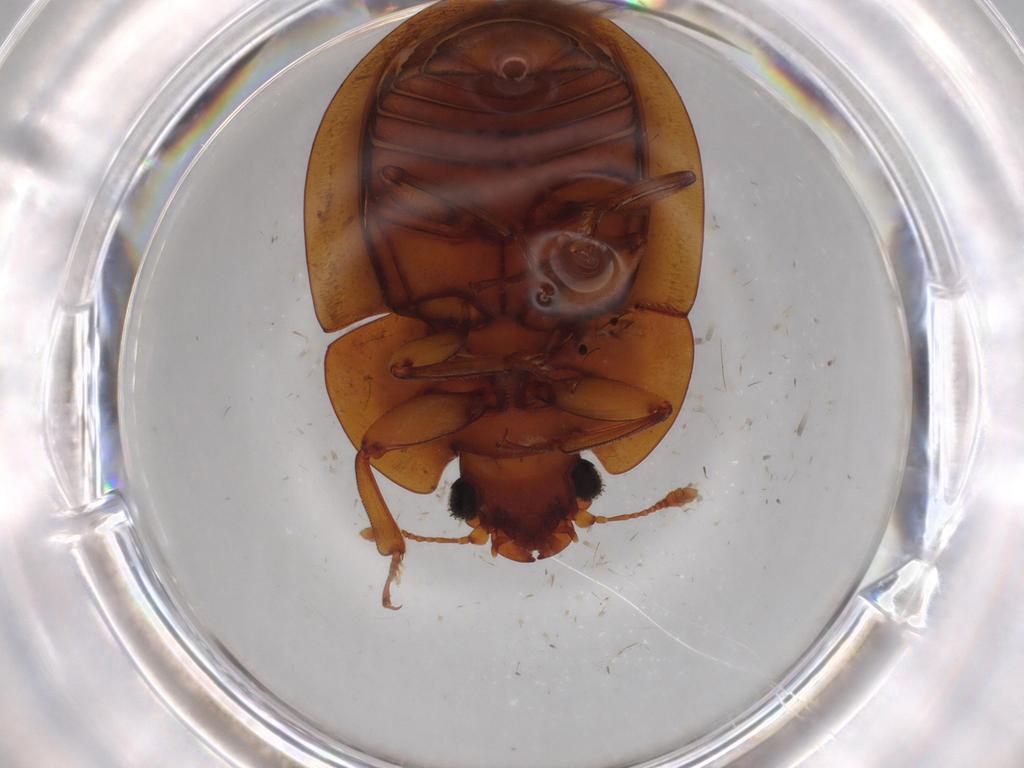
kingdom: Animalia
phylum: Arthropoda
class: Insecta
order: Coleoptera
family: Nitidulidae
